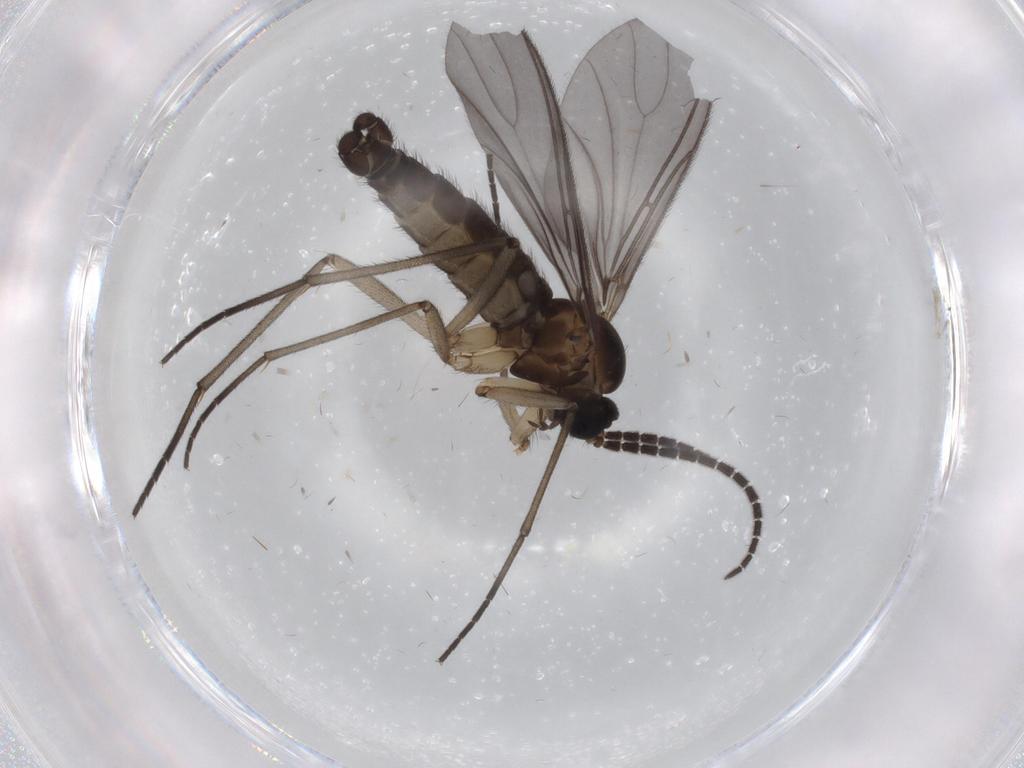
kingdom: Animalia
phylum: Arthropoda
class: Insecta
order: Diptera
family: Sciaridae
